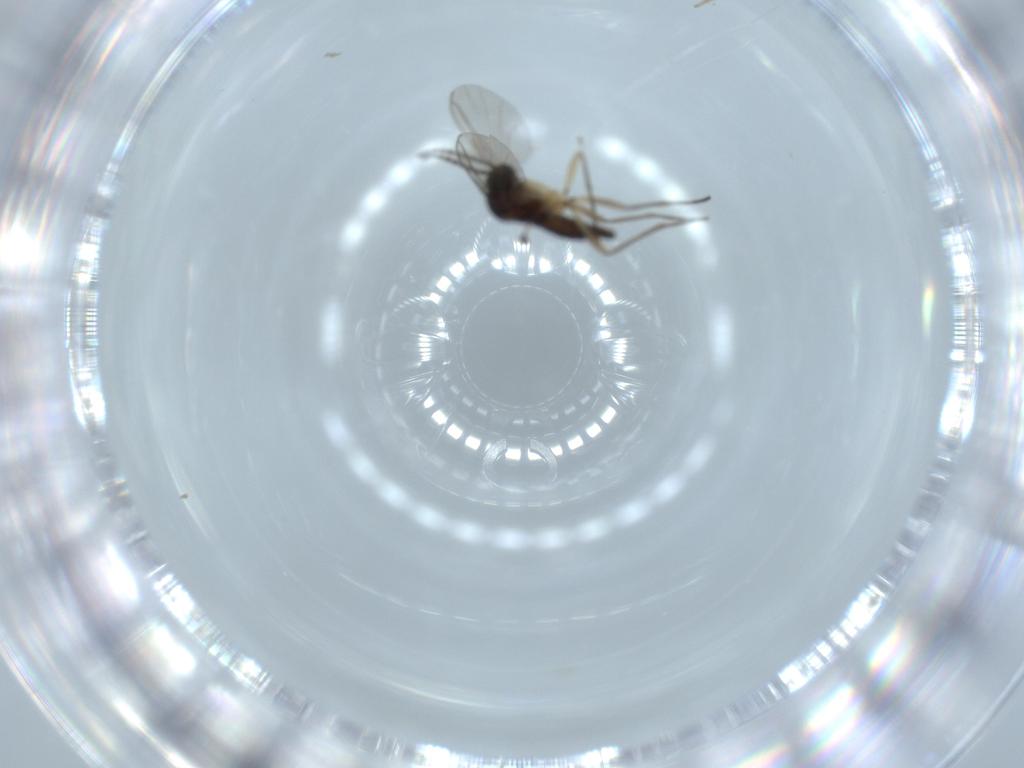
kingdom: Animalia
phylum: Arthropoda
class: Insecta
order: Diptera
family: Sciaridae
